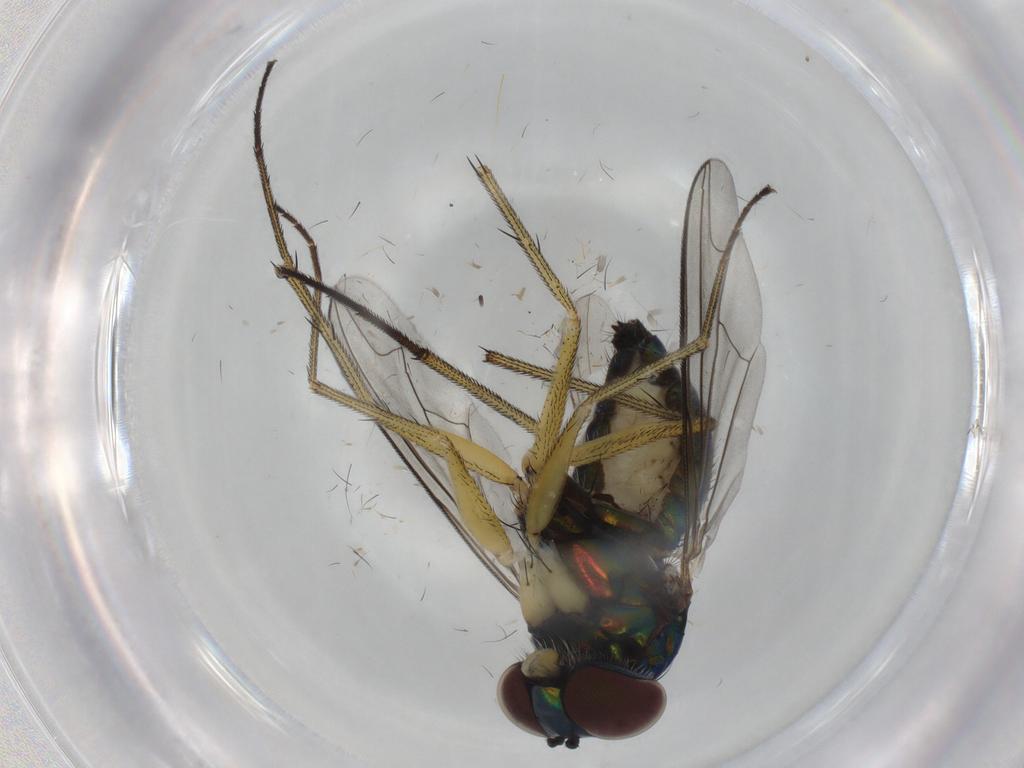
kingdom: Animalia
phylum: Arthropoda
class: Insecta
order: Diptera
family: Dolichopodidae
